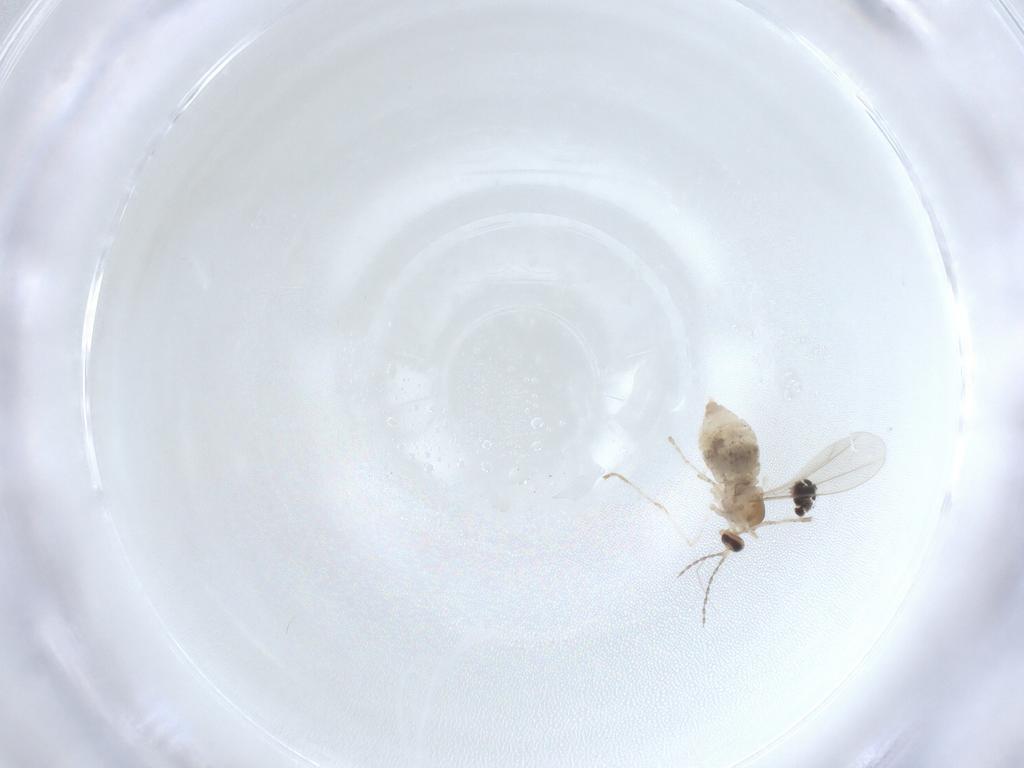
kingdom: Animalia
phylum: Arthropoda
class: Insecta
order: Diptera
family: Cecidomyiidae
